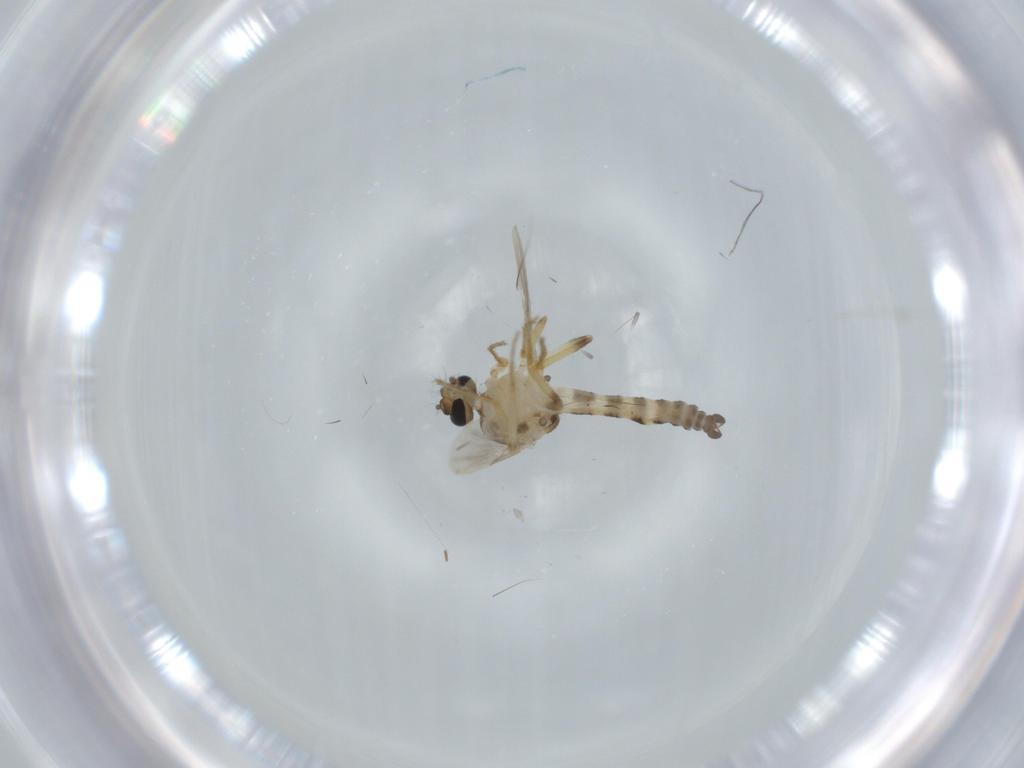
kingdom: Animalia
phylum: Arthropoda
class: Insecta
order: Diptera
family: Ceratopogonidae
